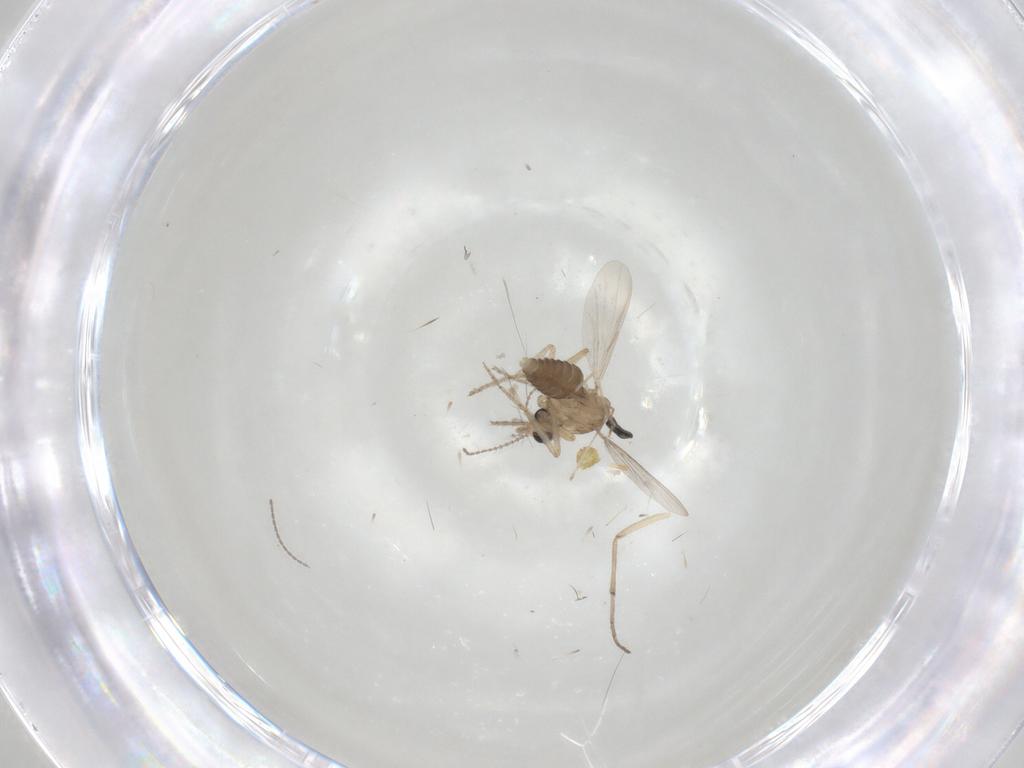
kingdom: Animalia
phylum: Arthropoda
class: Insecta
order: Diptera
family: Chironomidae
